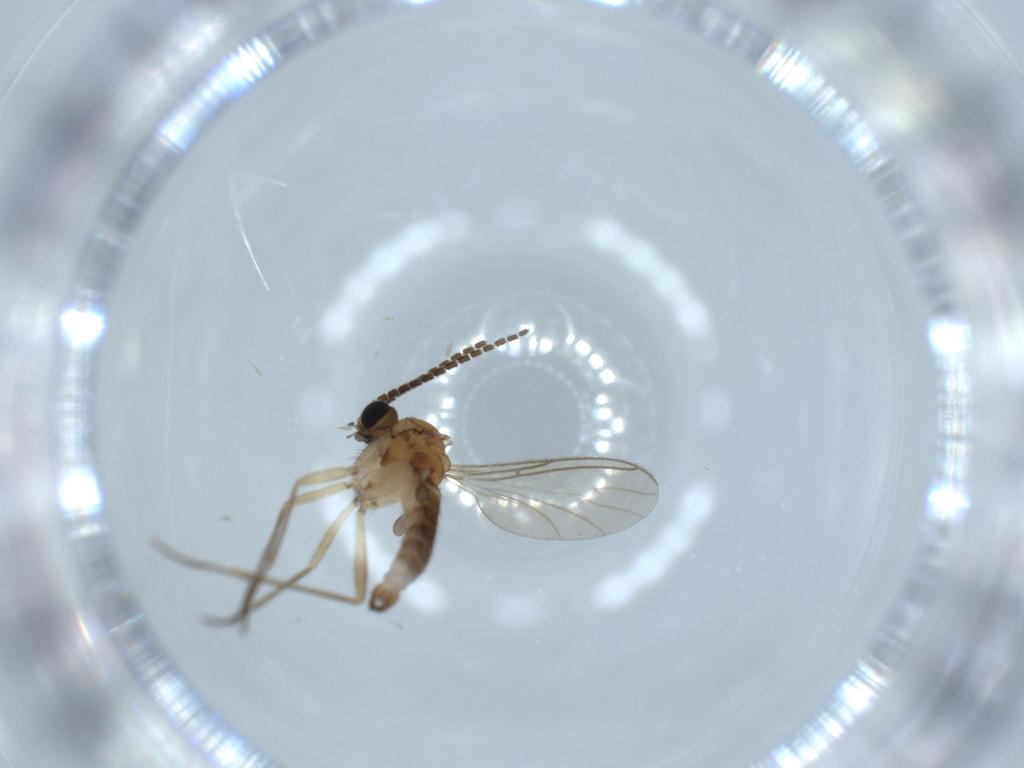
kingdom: Animalia
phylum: Arthropoda
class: Insecta
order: Diptera
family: Sciaridae
